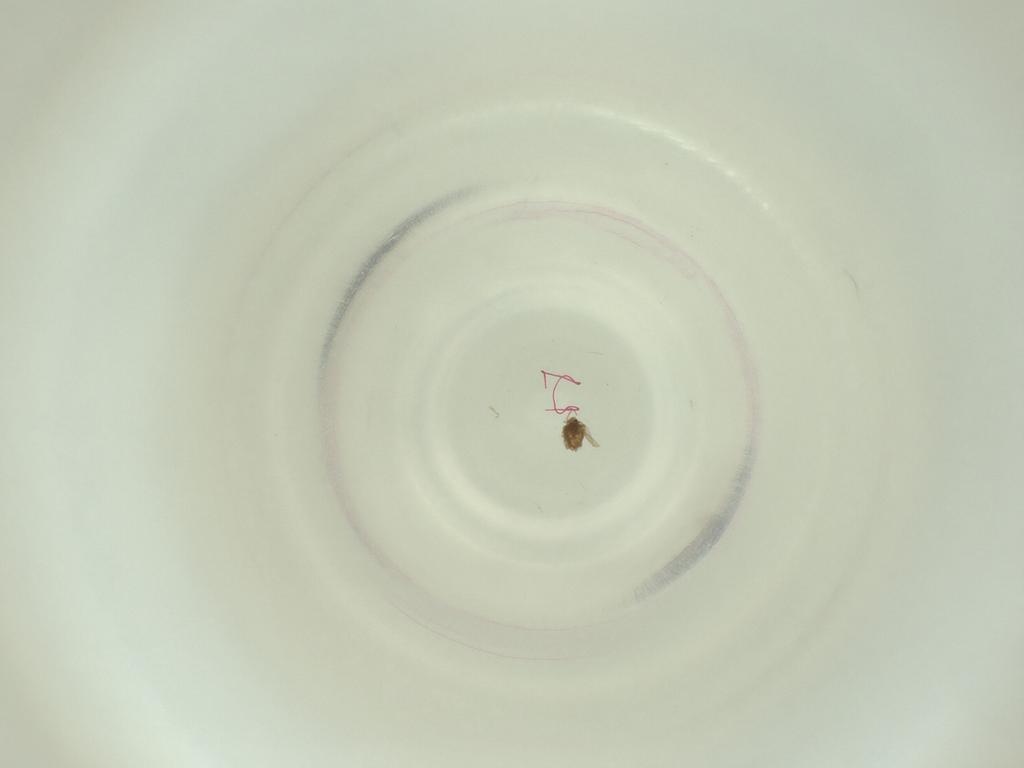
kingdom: Animalia
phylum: Arthropoda
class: Insecta
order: Diptera
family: Cecidomyiidae
